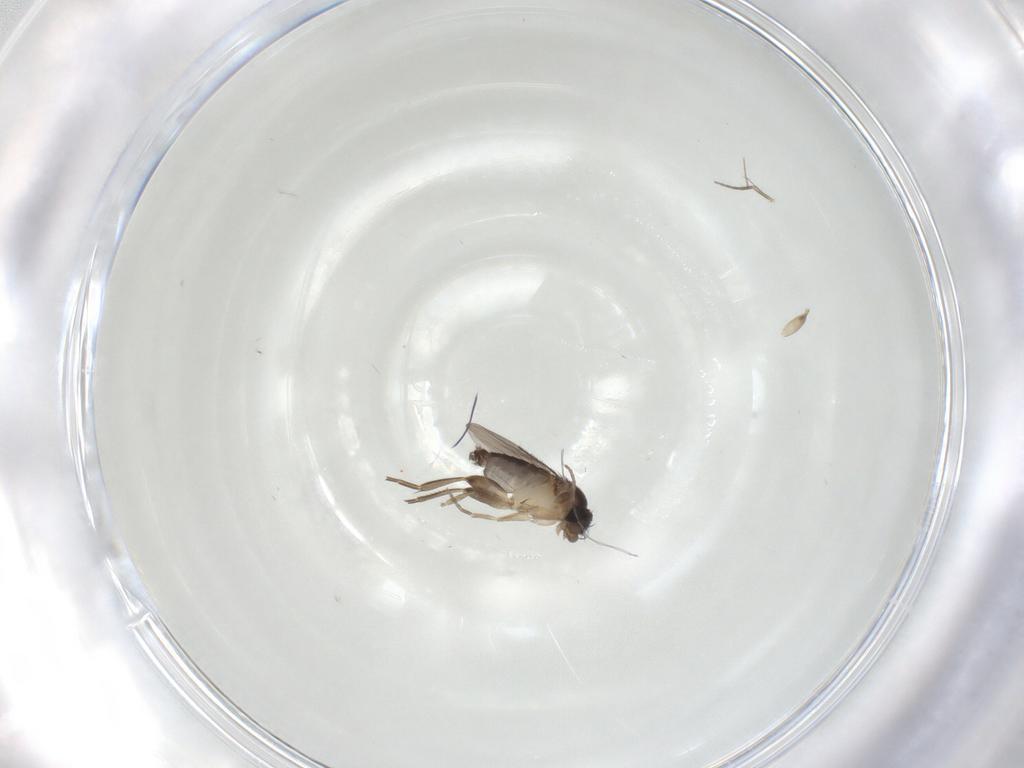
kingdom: Animalia
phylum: Arthropoda
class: Insecta
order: Diptera
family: Phoridae
